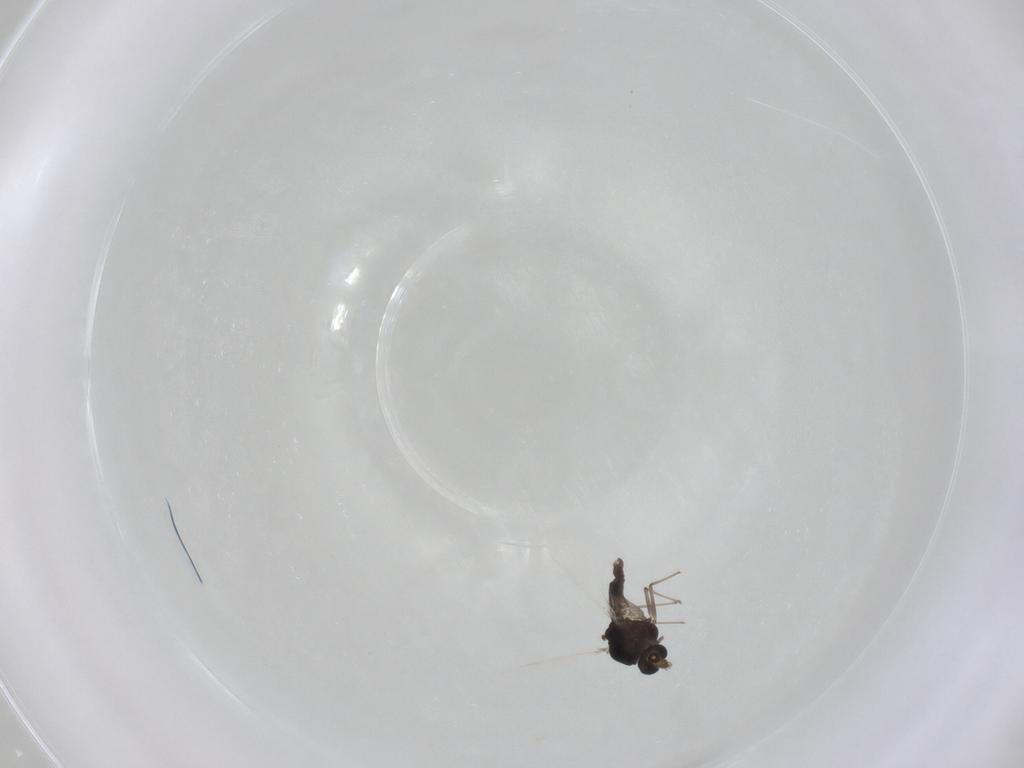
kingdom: Animalia
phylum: Arthropoda
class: Insecta
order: Diptera
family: Chironomidae
